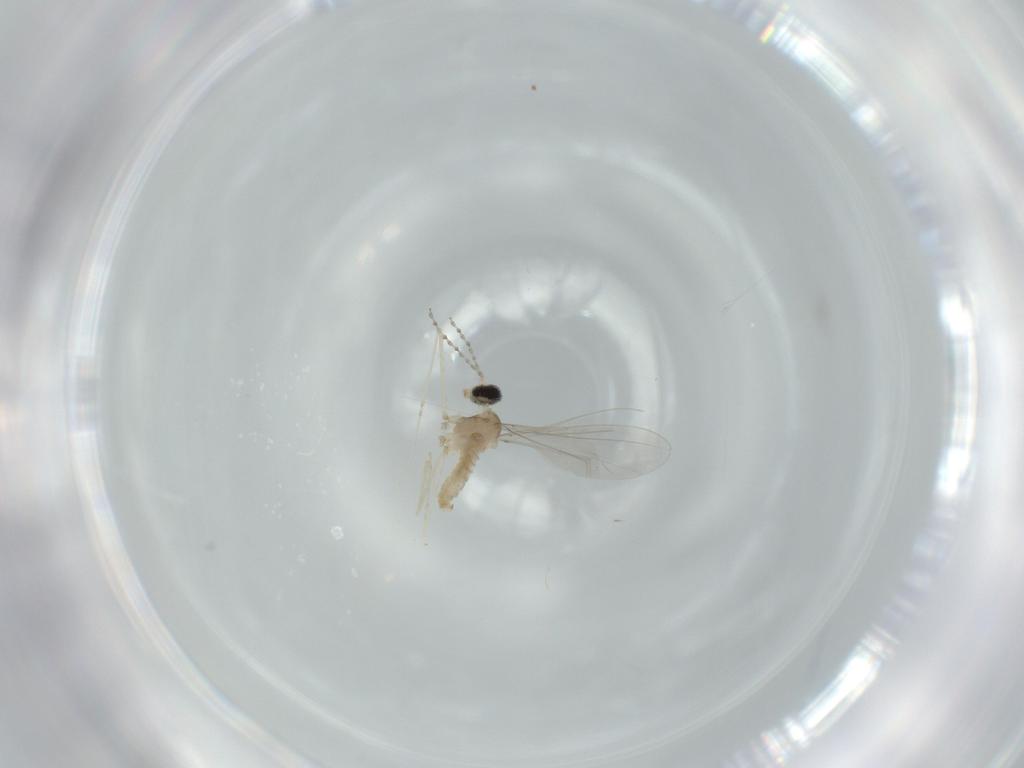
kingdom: Animalia
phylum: Arthropoda
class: Insecta
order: Diptera
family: Cecidomyiidae
